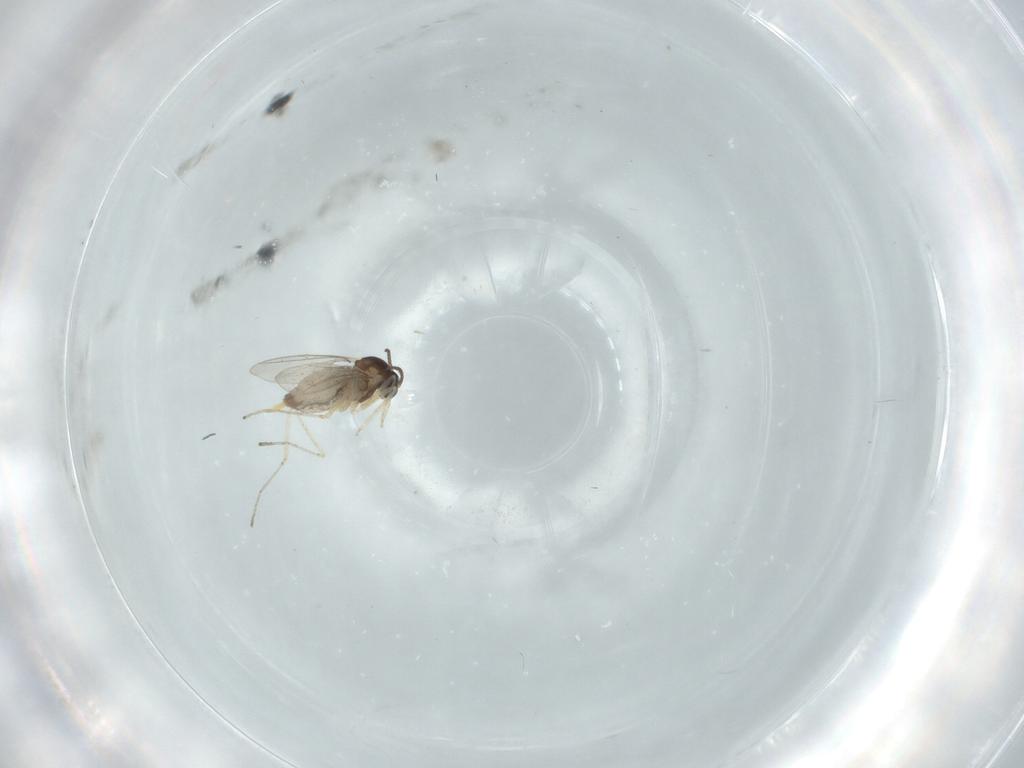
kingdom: Animalia
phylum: Arthropoda
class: Insecta
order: Diptera
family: Cecidomyiidae
